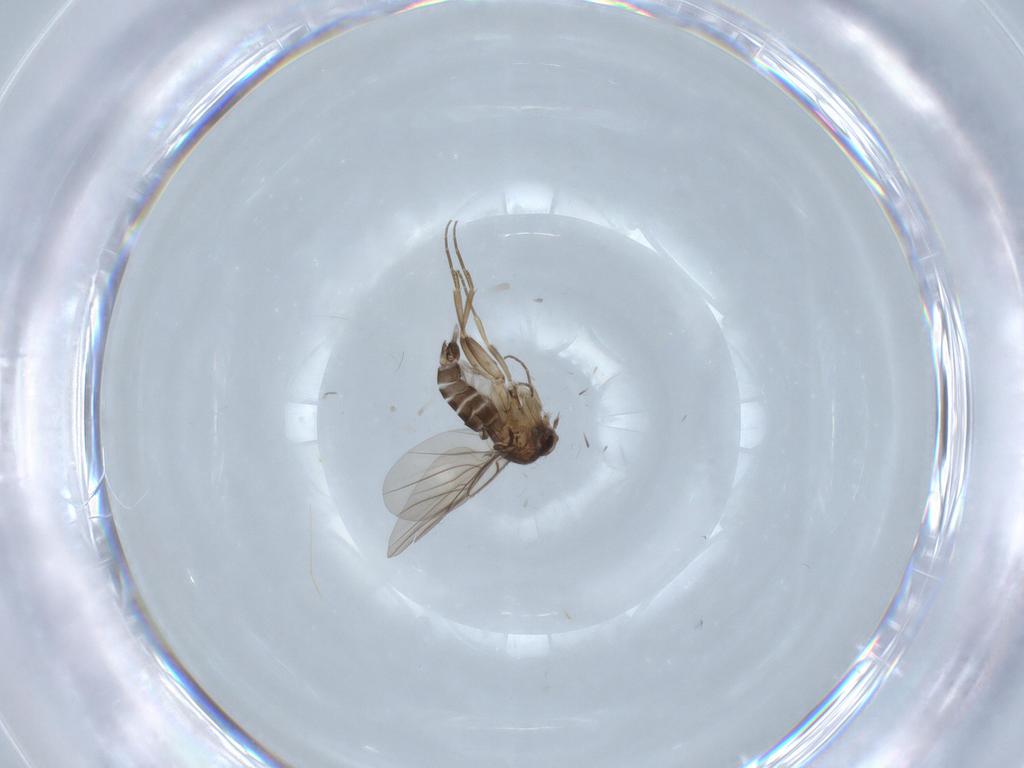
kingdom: Animalia
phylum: Arthropoda
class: Insecta
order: Diptera
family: Phoridae
